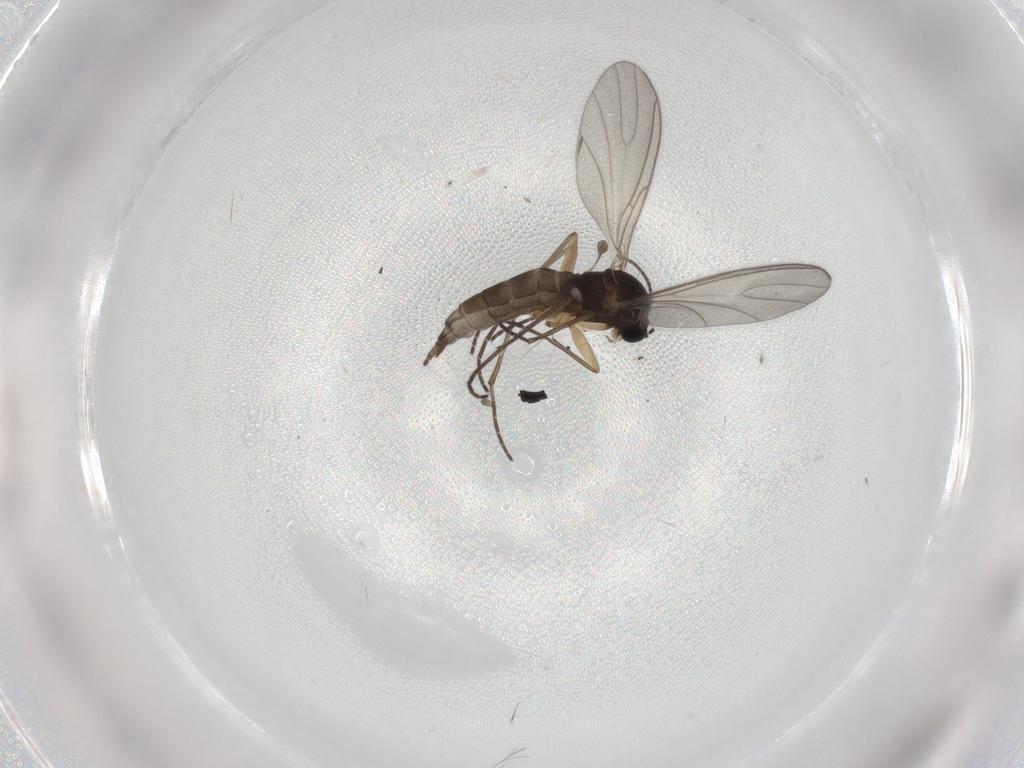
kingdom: Animalia
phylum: Arthropoda
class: Insecta
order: Diptera
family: Sciaridae
